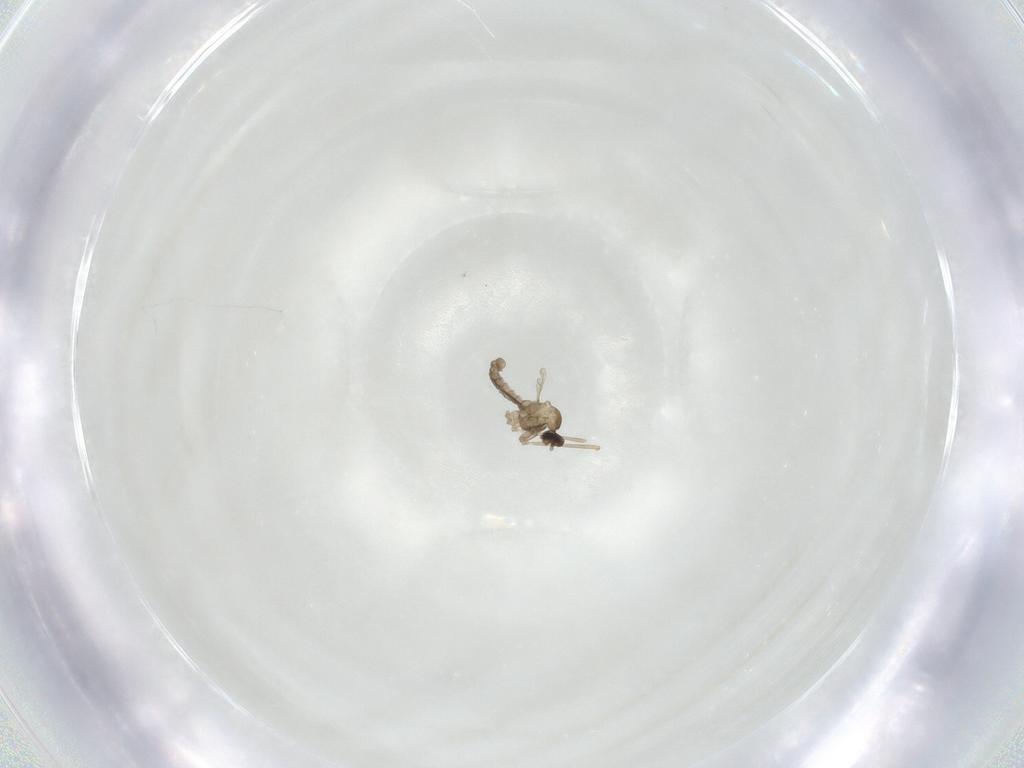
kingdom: Animalia
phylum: Arthropoda
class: Insecta
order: Diptera
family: Cecidomyiidae
